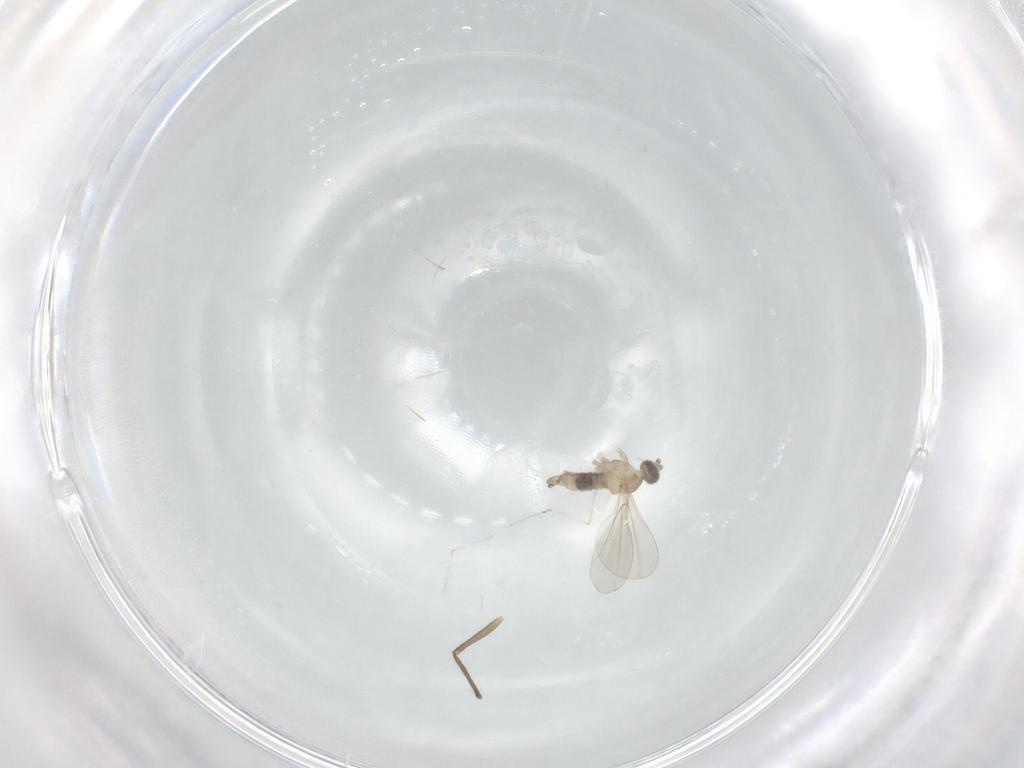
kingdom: Animalia
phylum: Arthropoda
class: Insecta
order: Diptera
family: Chironomidae
